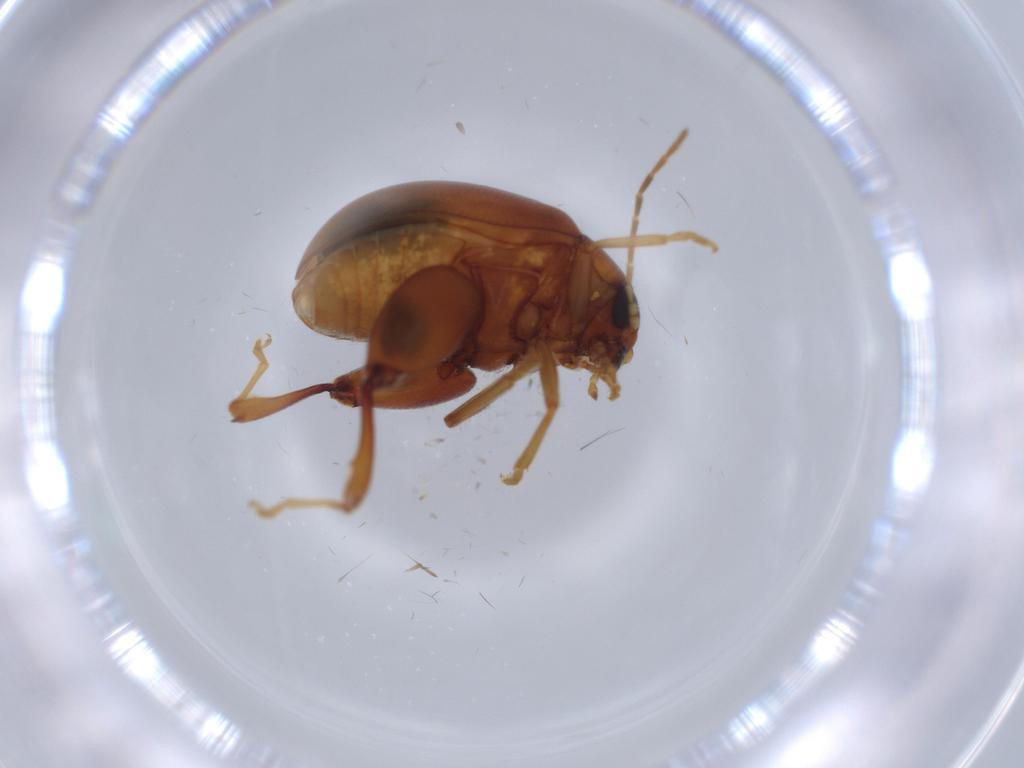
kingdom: Animalia
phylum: Arthropoda
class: Insecta
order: Coleoptera
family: Chrysomelidae
